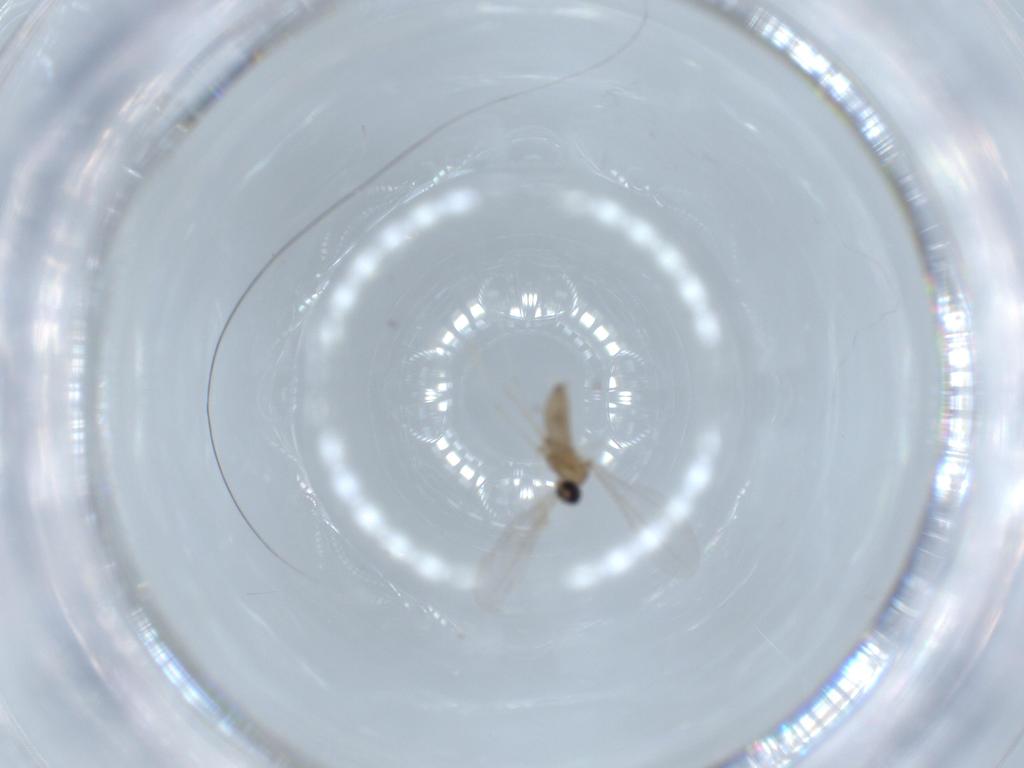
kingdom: Animalia
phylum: Arthropoda
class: Insecta
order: Diptera
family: Cecidomyiidae
